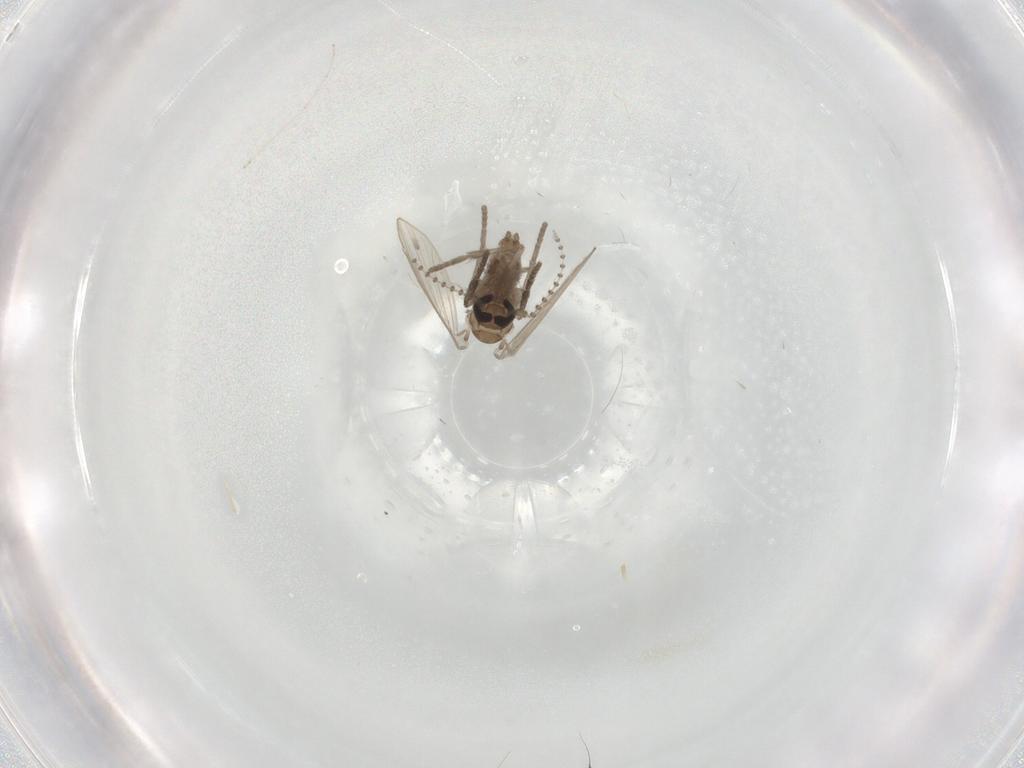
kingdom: Animalia
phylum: Arthropoda
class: Insecta
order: Diptera
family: Psychodidae
